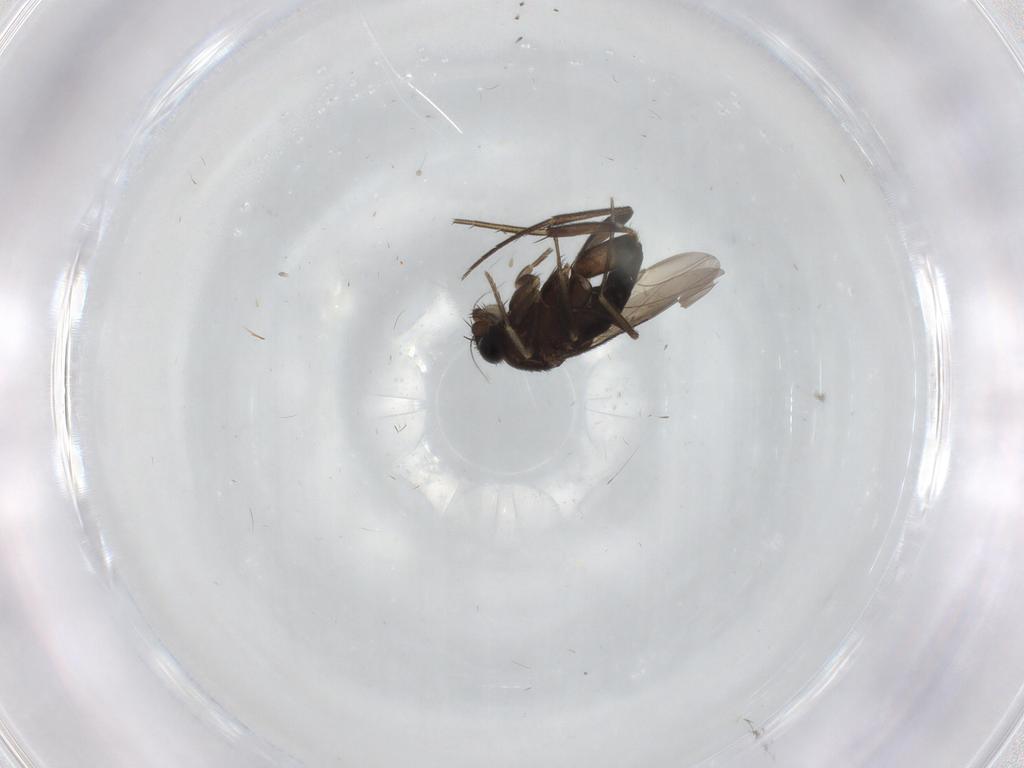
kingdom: Animalia
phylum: Arthropoda
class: Insecta
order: Diptera
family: Phoridae
